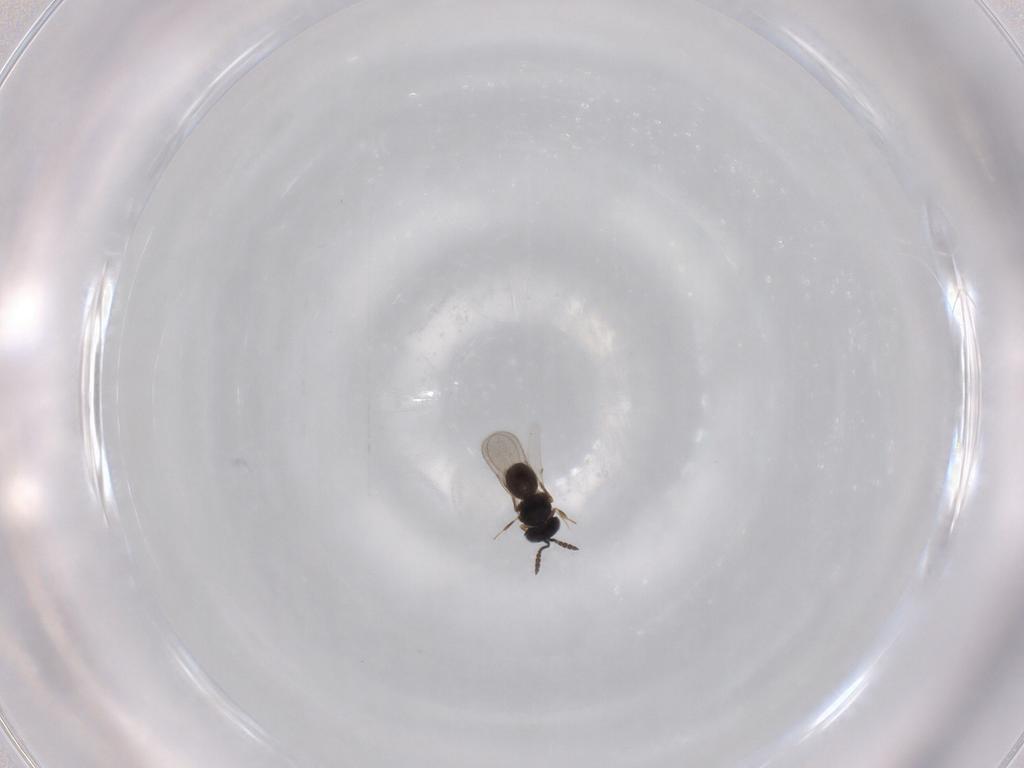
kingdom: Animalia
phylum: Arthropoda
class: Insecta
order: Hymenoptera
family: Scelionidae
